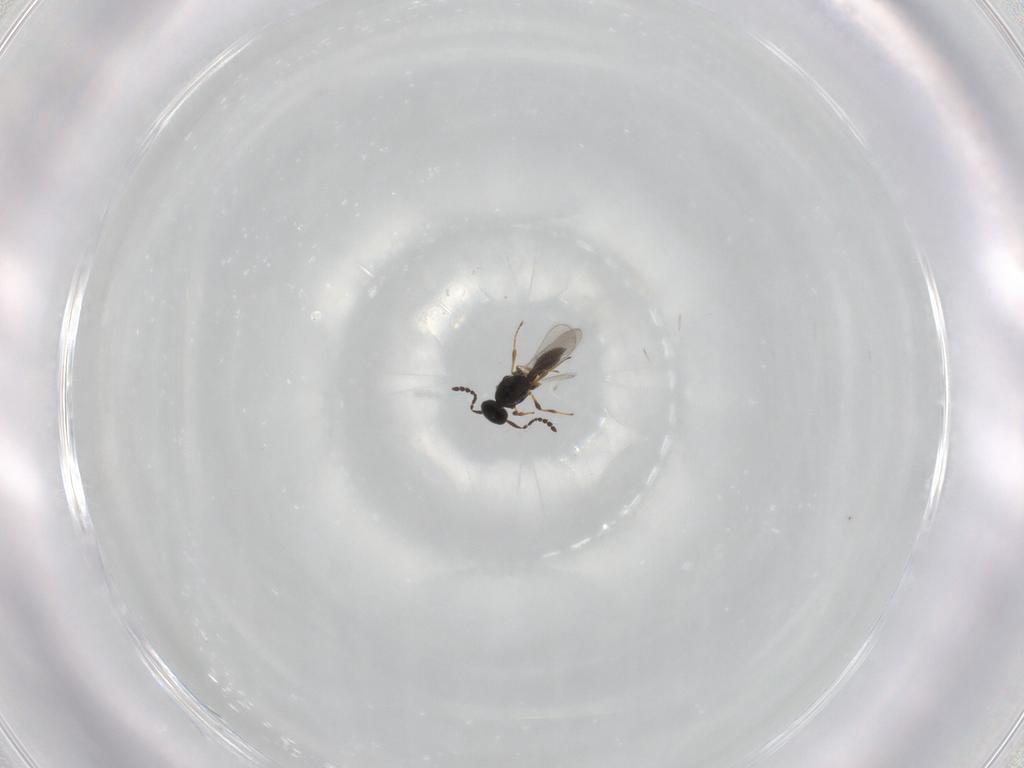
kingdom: Animalia
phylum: Arthropoda
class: Insecta
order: Hymenoptera
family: Platygastridae
